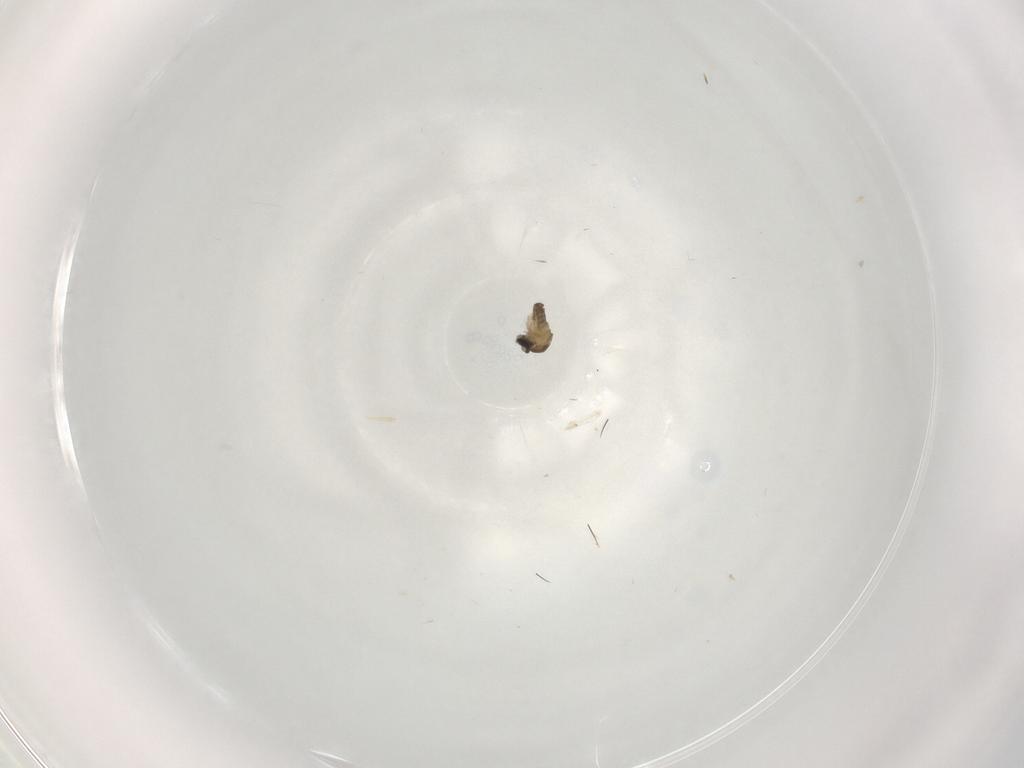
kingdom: Animalia
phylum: Arthropoda
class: Insecta
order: Diptera
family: Cecidomyiidae
